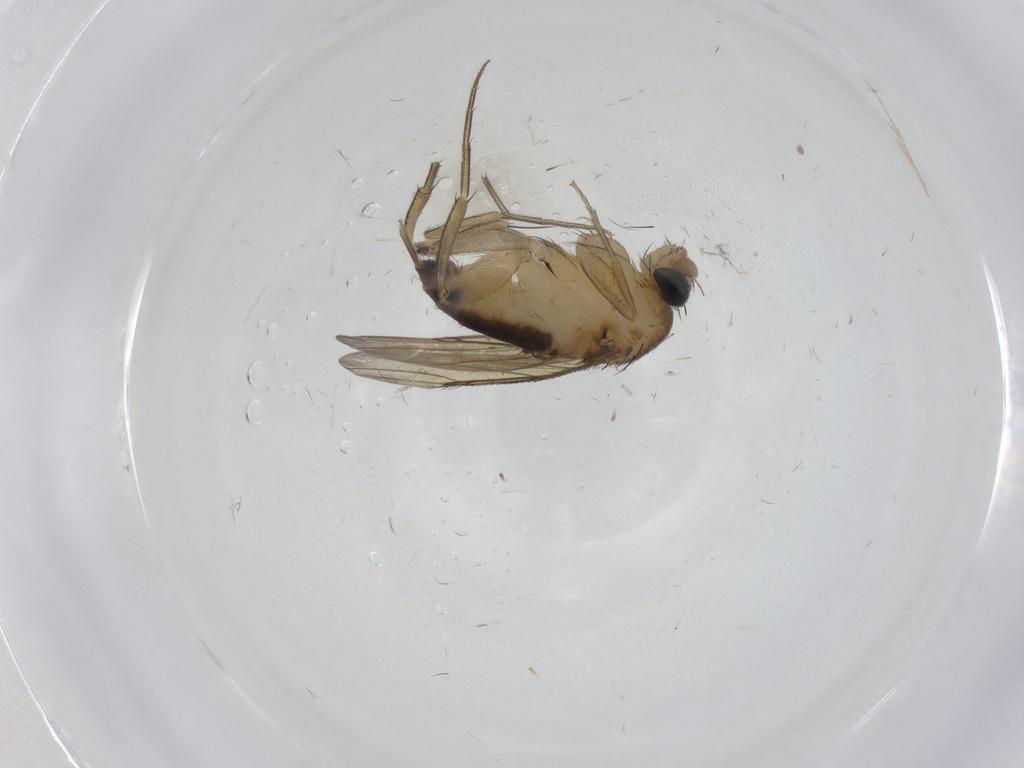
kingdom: Animalia
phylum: Arthropoda
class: Insecta
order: Diptera
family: Phoridae
